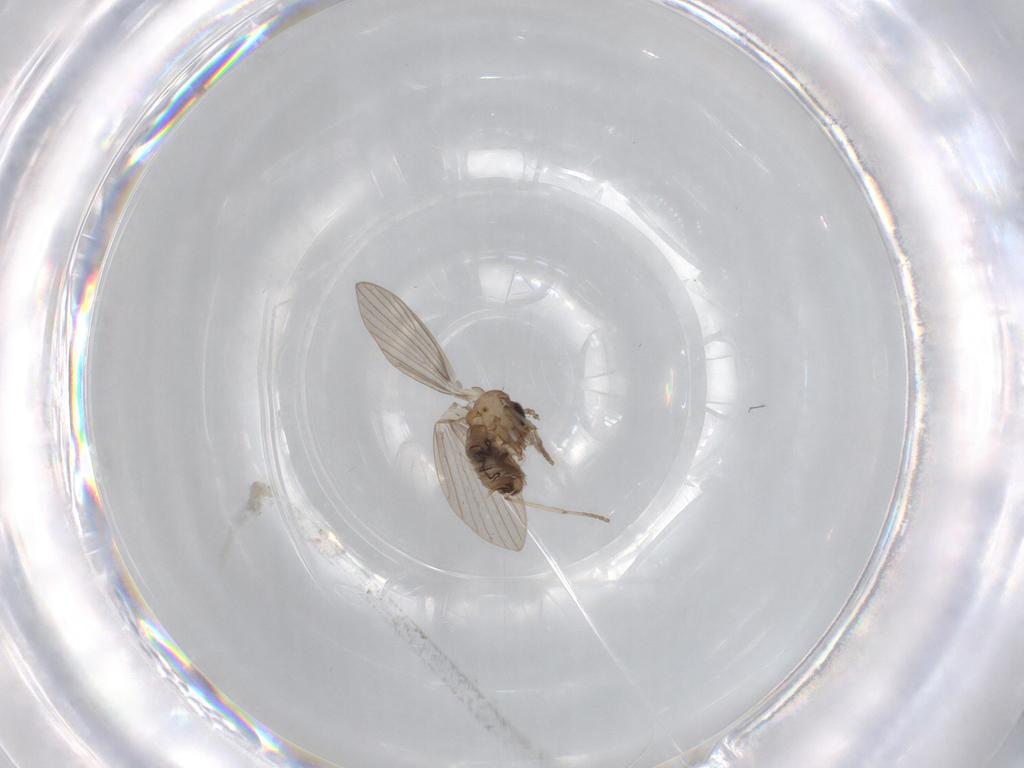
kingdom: Animalia
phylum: Arthropoda
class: Insecta
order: Diptera
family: Psychodidae
